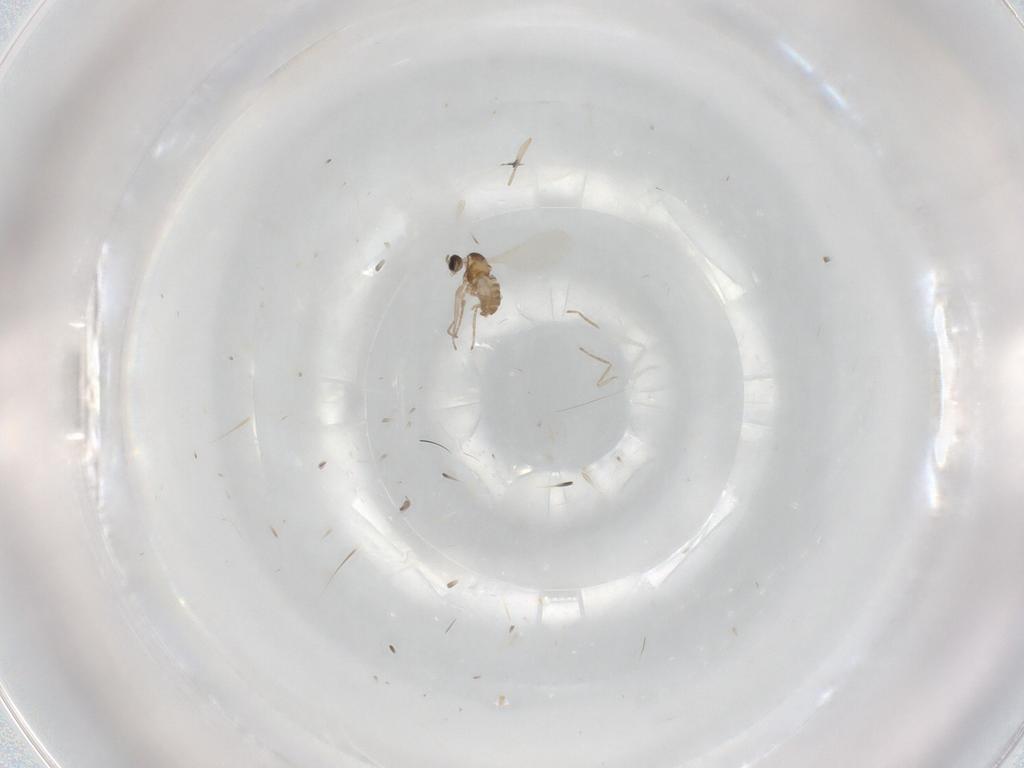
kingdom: Animalia
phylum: Arthropoda
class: Insecta
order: Diptera
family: Cecidomyiidae
